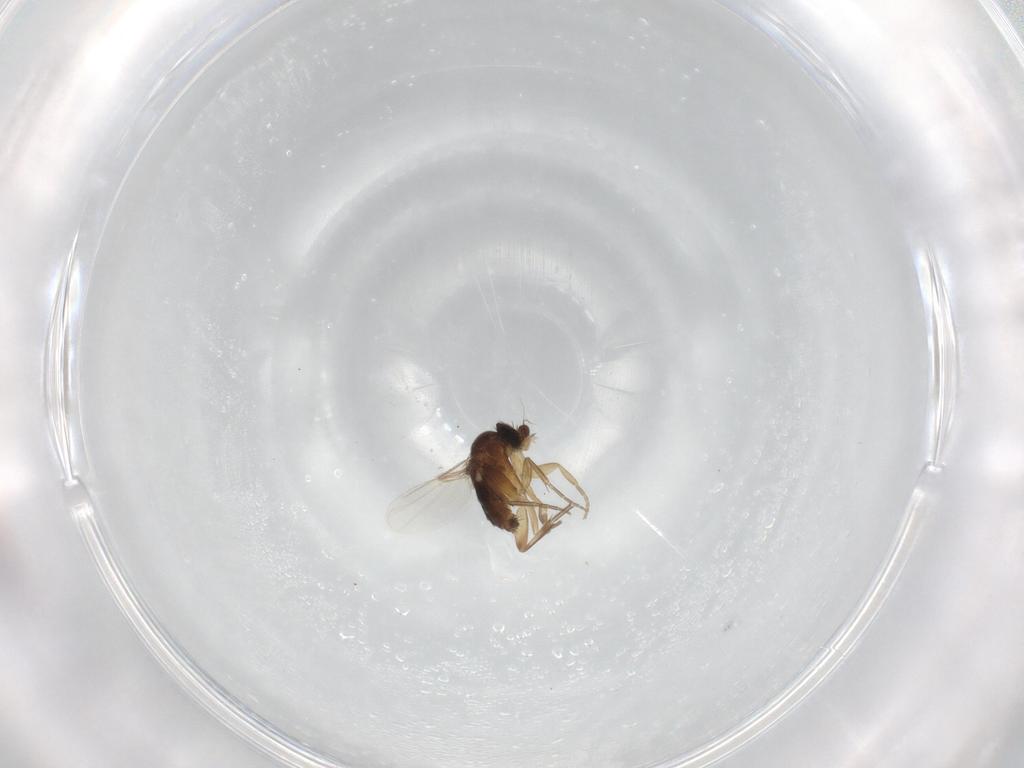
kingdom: Animalia
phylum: Arthropoda
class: Insecta
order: Diptera
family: Phoridae
